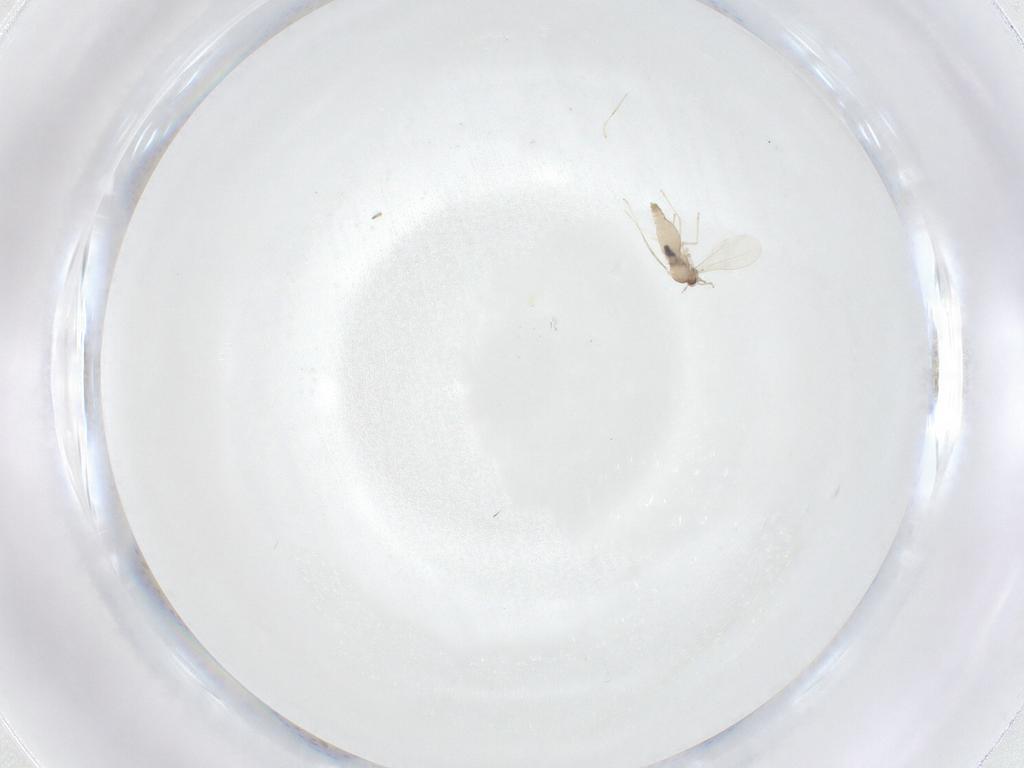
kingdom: Animalia
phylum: Arthropoda
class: Insecta
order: Diptera
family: Cecidomyiidae
